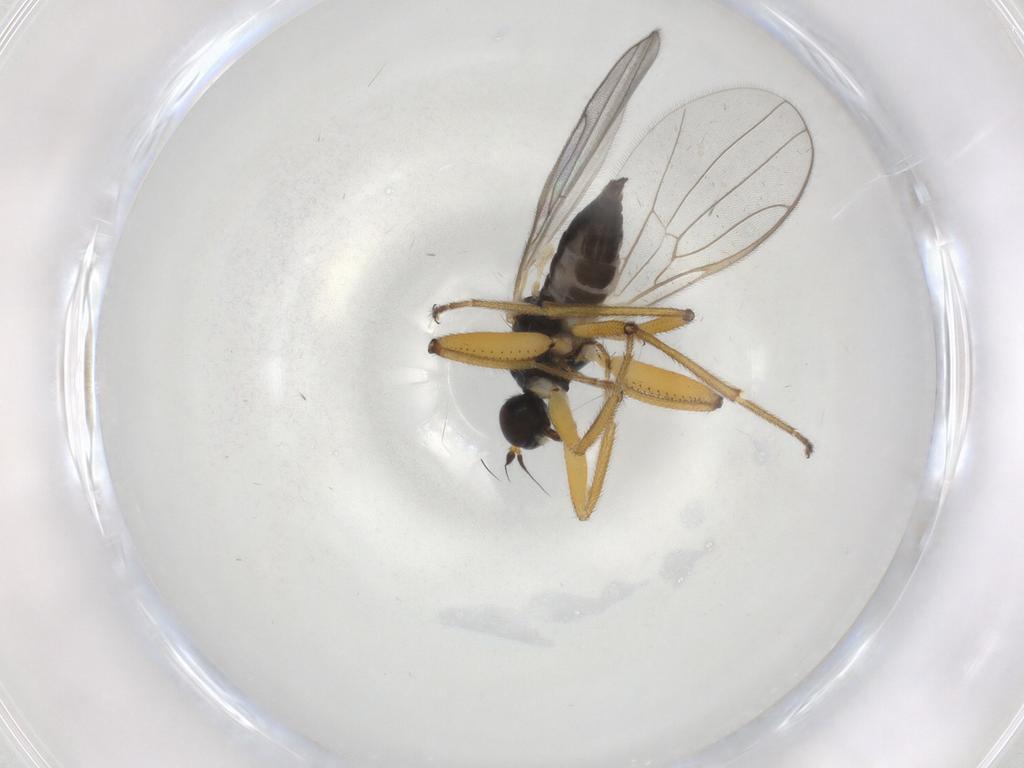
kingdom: Animalia
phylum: Arthropoda
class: Insecta
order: Diptera
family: Hybotidae
